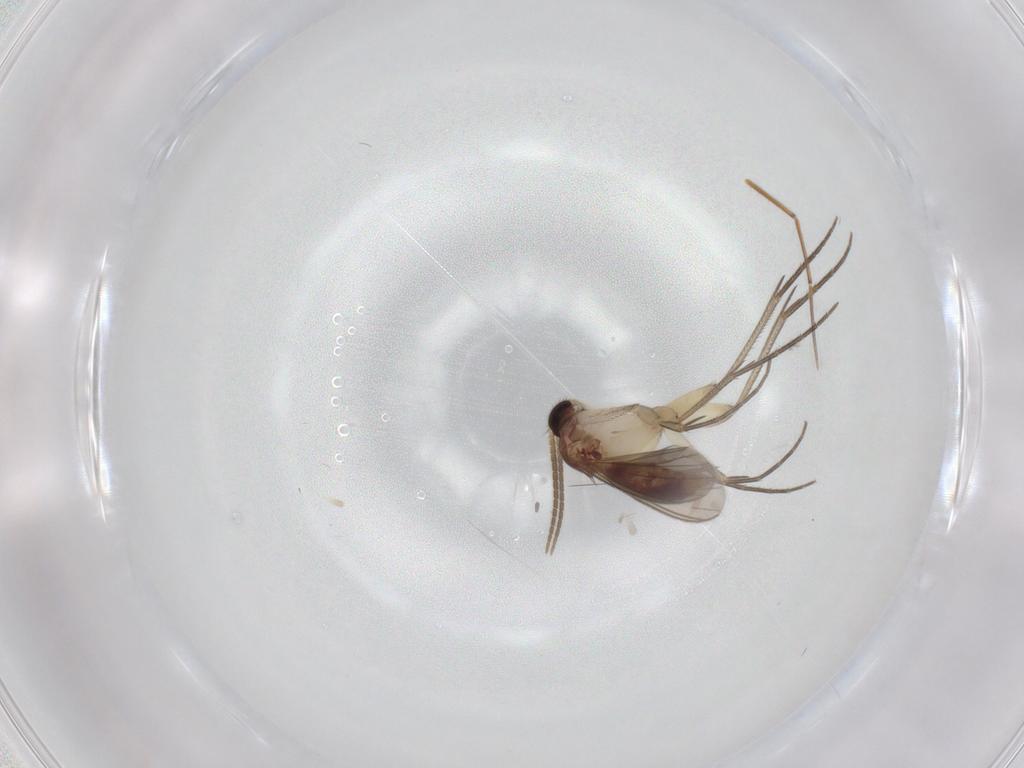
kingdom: Animalia
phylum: Arthropoda
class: Insecta
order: Diptera
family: Mycetophilidae
